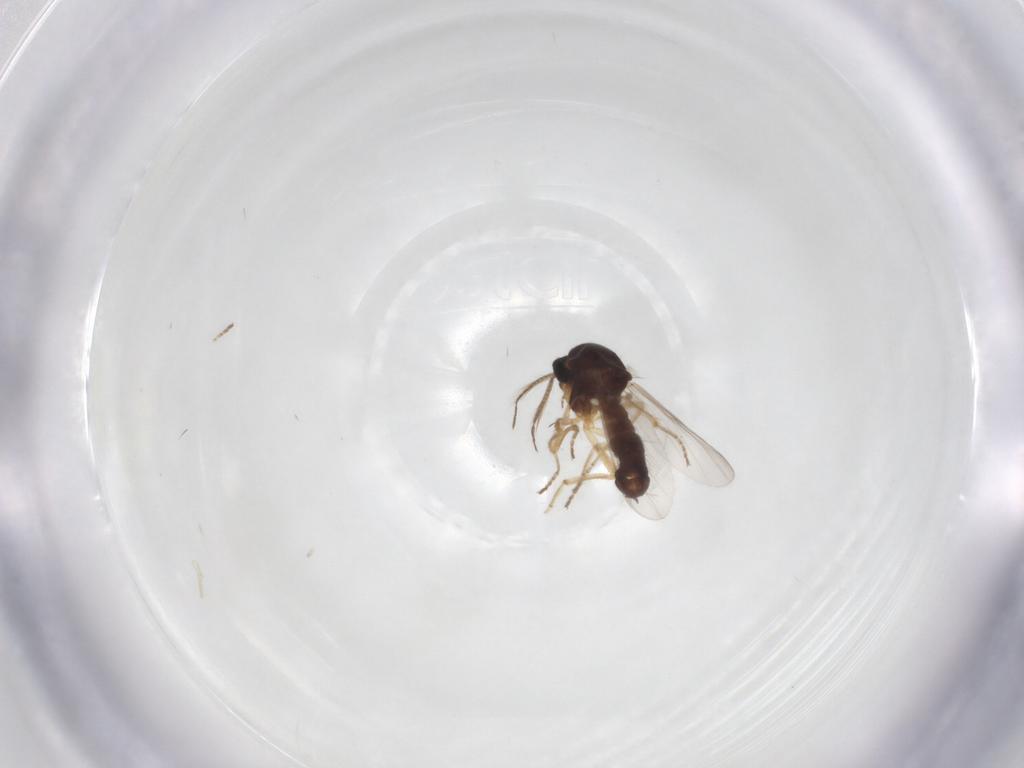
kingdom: Animalia
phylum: Arthropoda
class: Insecta
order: Diptera
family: Ceratopogonidae
